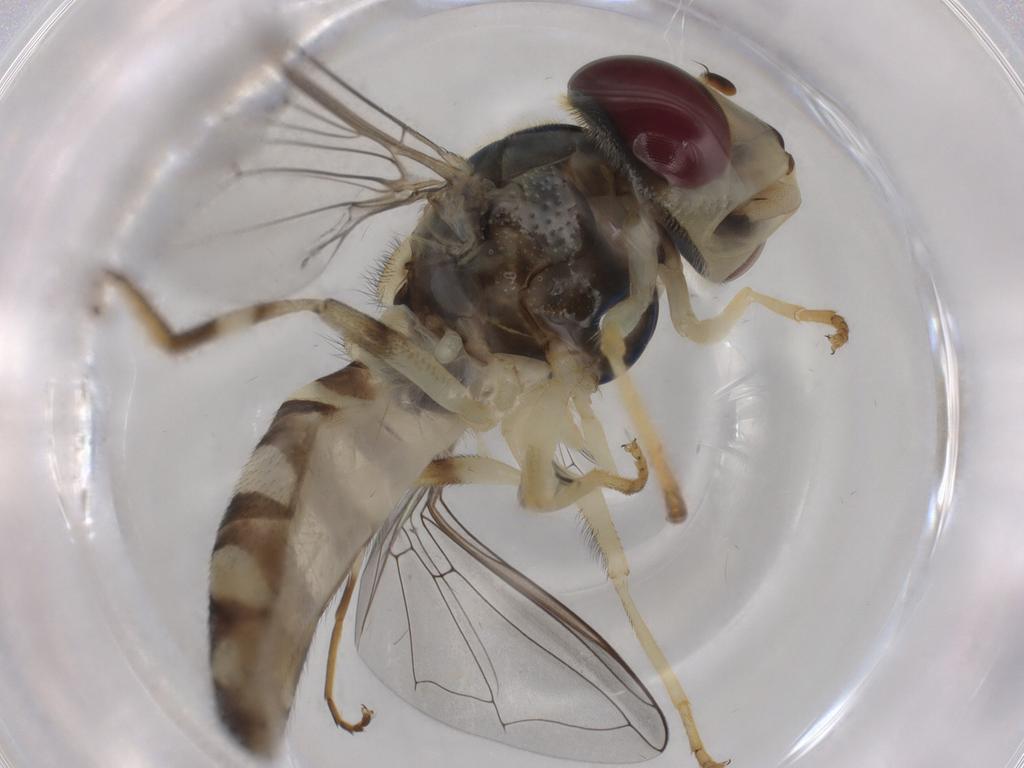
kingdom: Animalia
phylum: Arthropoda
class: Insecta
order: Diptera
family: Syrphidae
